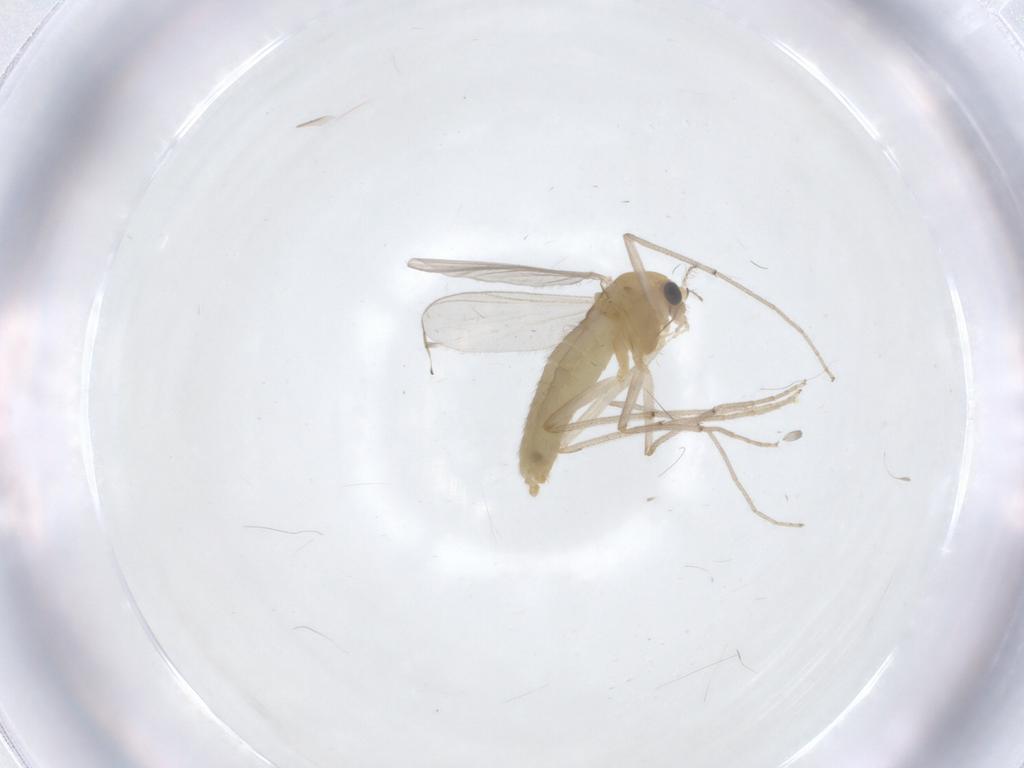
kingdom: Animalia
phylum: Arthropoda
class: Insecta
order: Diptera
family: Chironomidae
